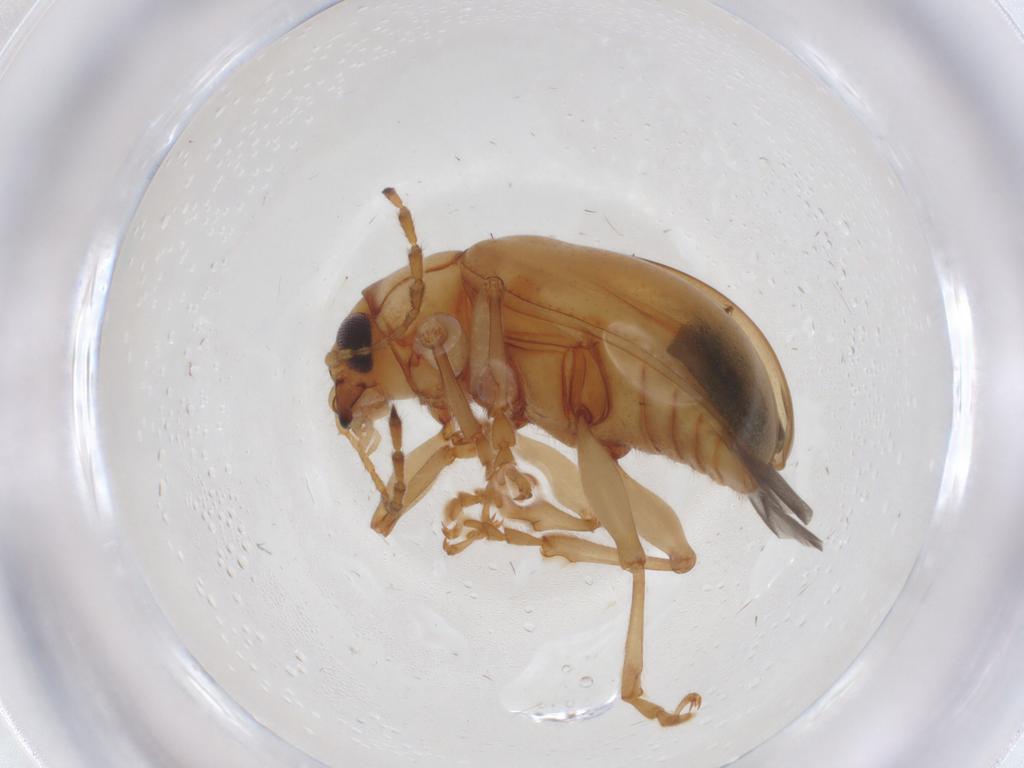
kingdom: Animalia
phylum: Arthropoda
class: Insecta
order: Coleoptera
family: Chrysomelidae
